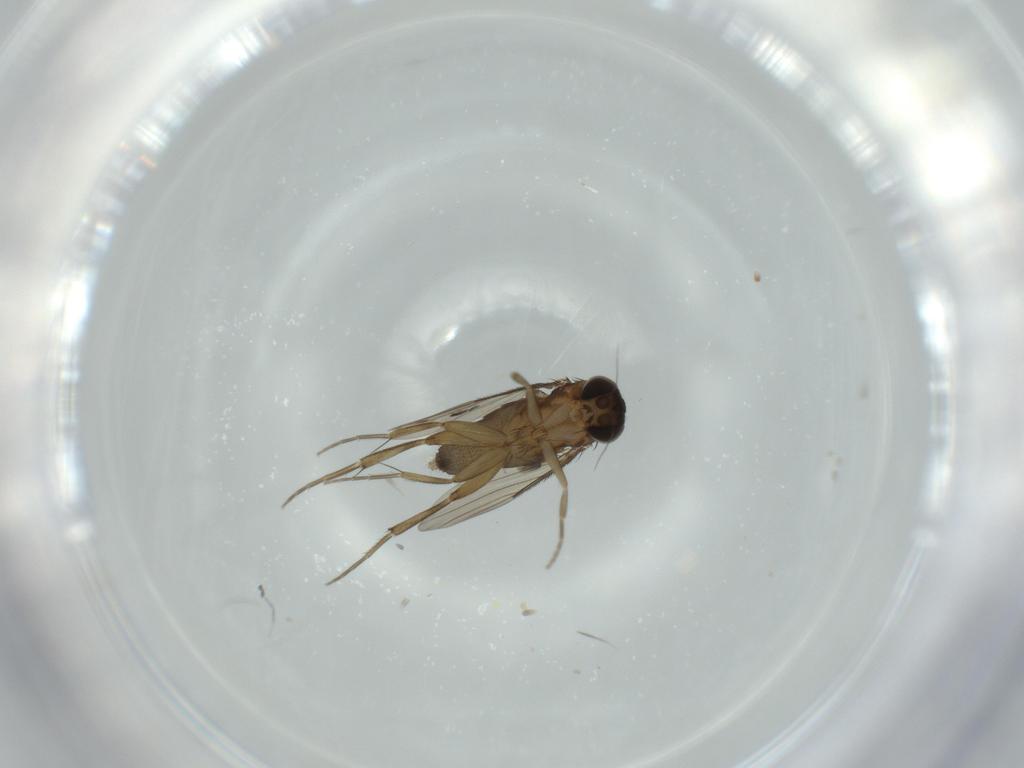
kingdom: Animalia
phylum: Arthropoda
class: Insecta
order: Diptera
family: Phoridae
